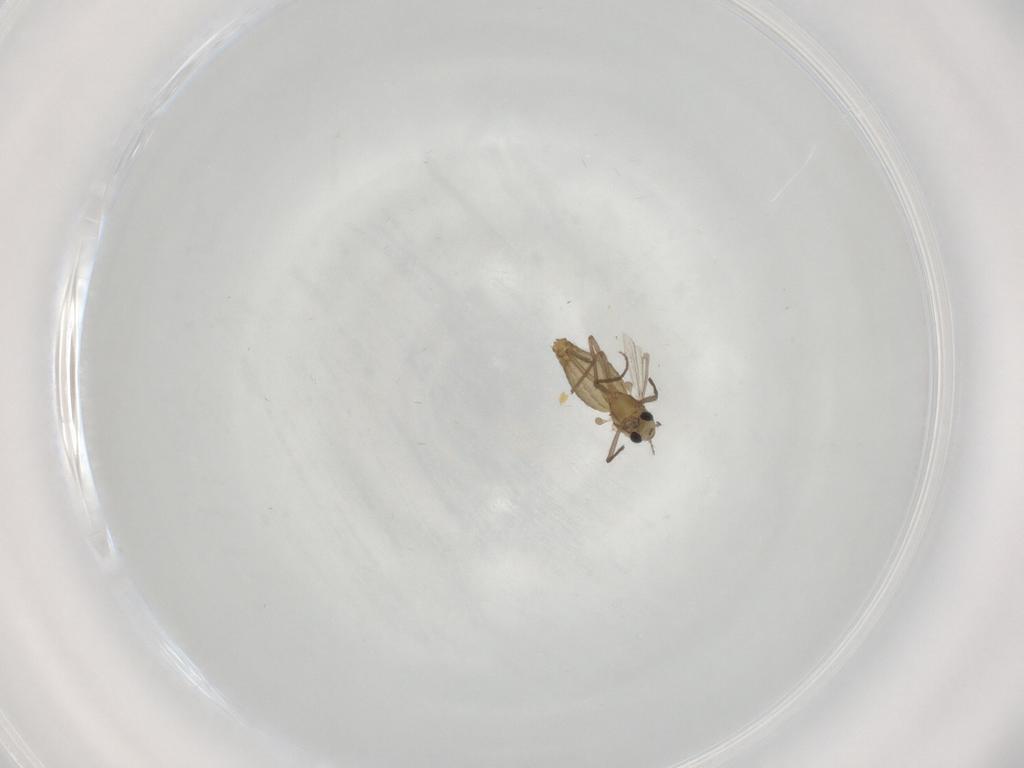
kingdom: Animalia
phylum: Arthropoda
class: Insecta
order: Diptera
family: Chironomidae
